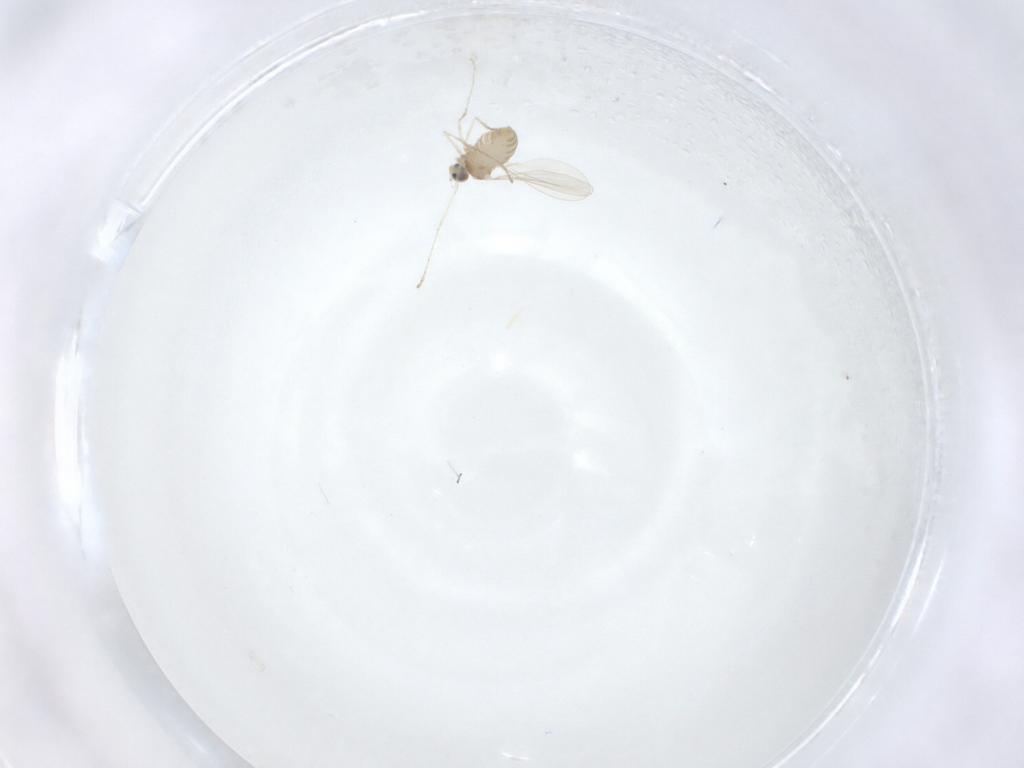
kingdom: Animalia
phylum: Arthropoda
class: Insecta
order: Diptera
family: Cecidomyiidae
